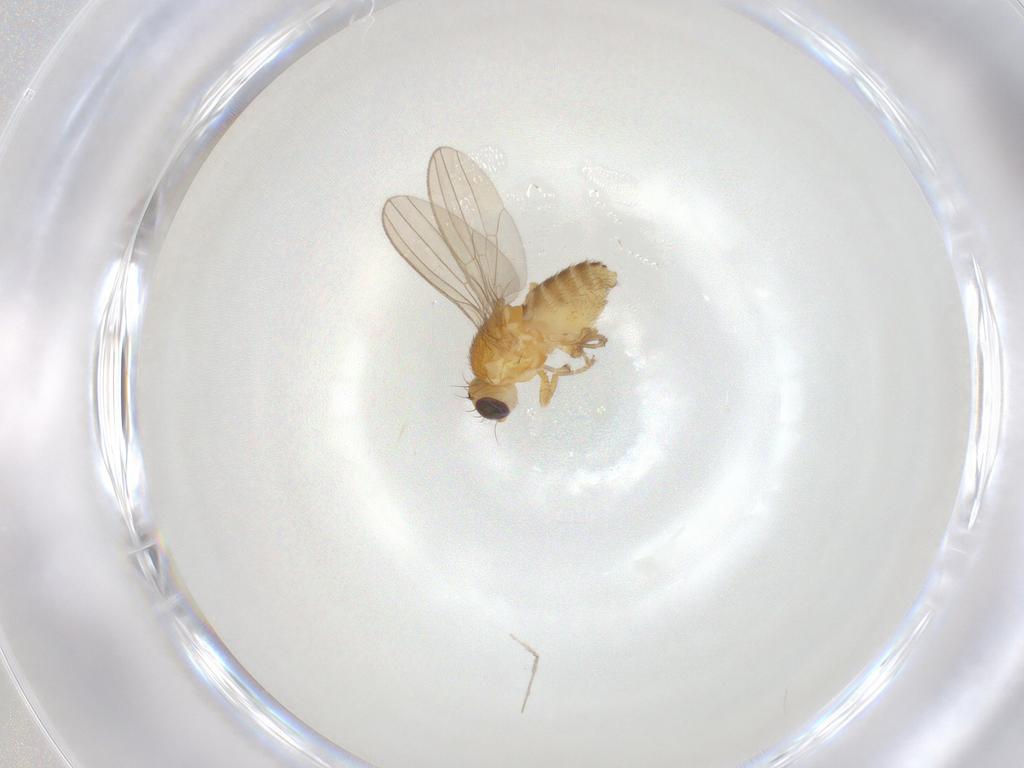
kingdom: Animalia
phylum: Arthropoda
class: Insecta
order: Diptera
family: Chyromyidae
